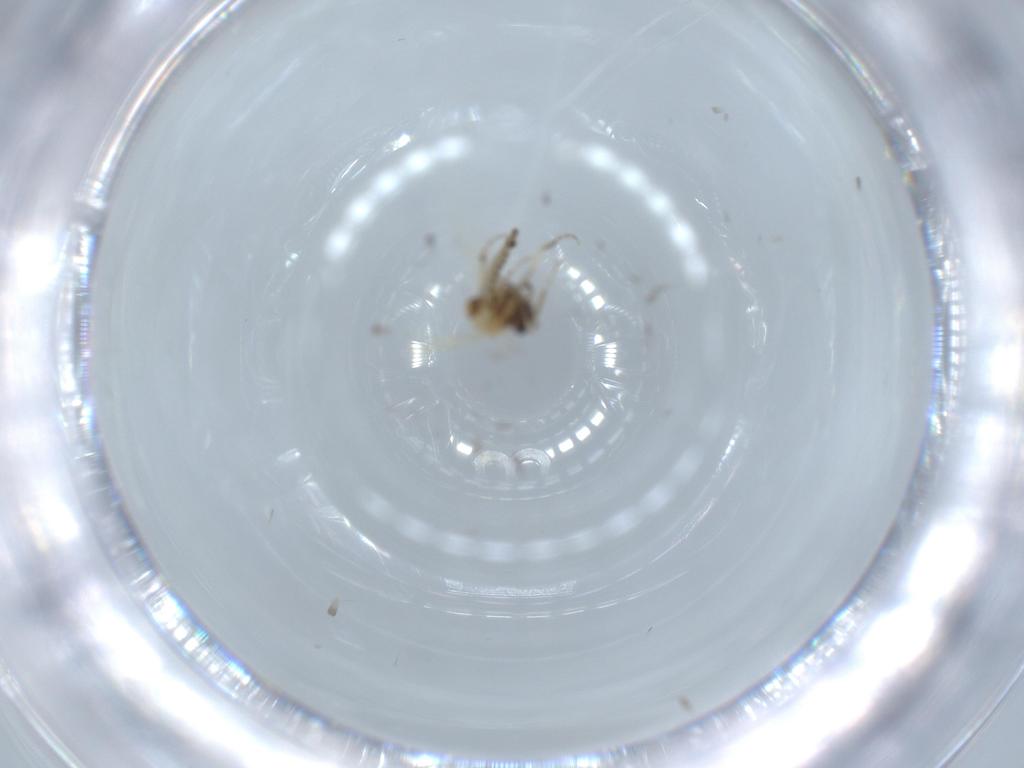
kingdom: Animalia
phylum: Arthropoda
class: Insecta
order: Diptera
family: Ceratopogonidae
